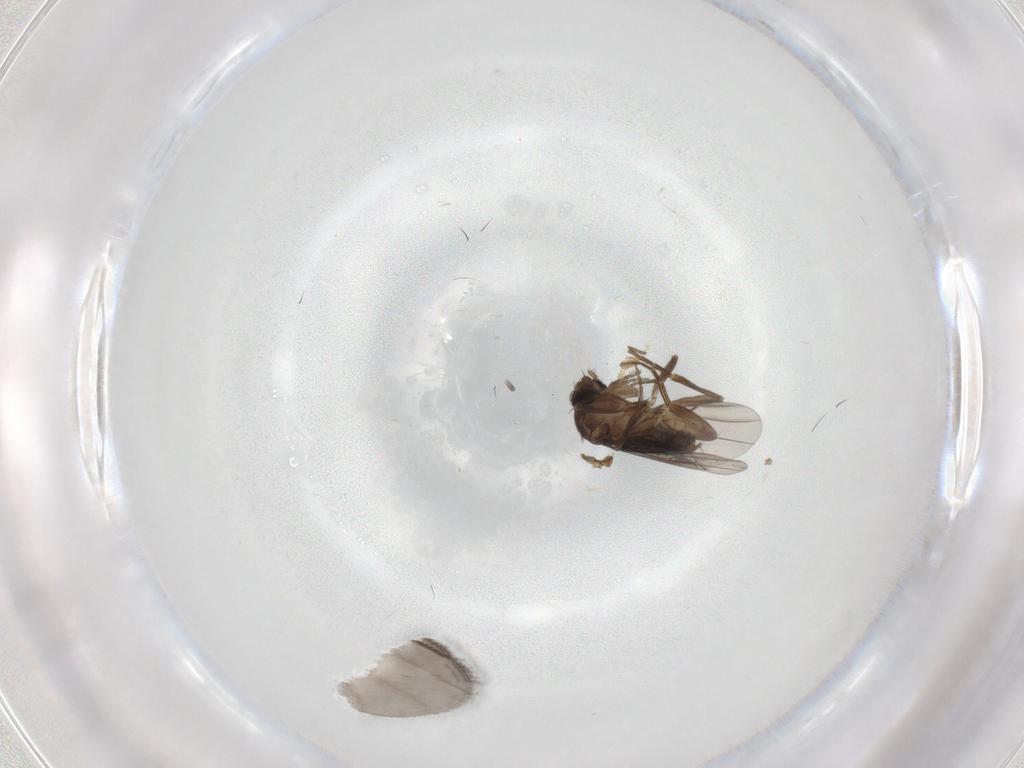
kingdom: Animalia
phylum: Arthropoda
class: Insecta
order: Diptera
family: Phoridae
